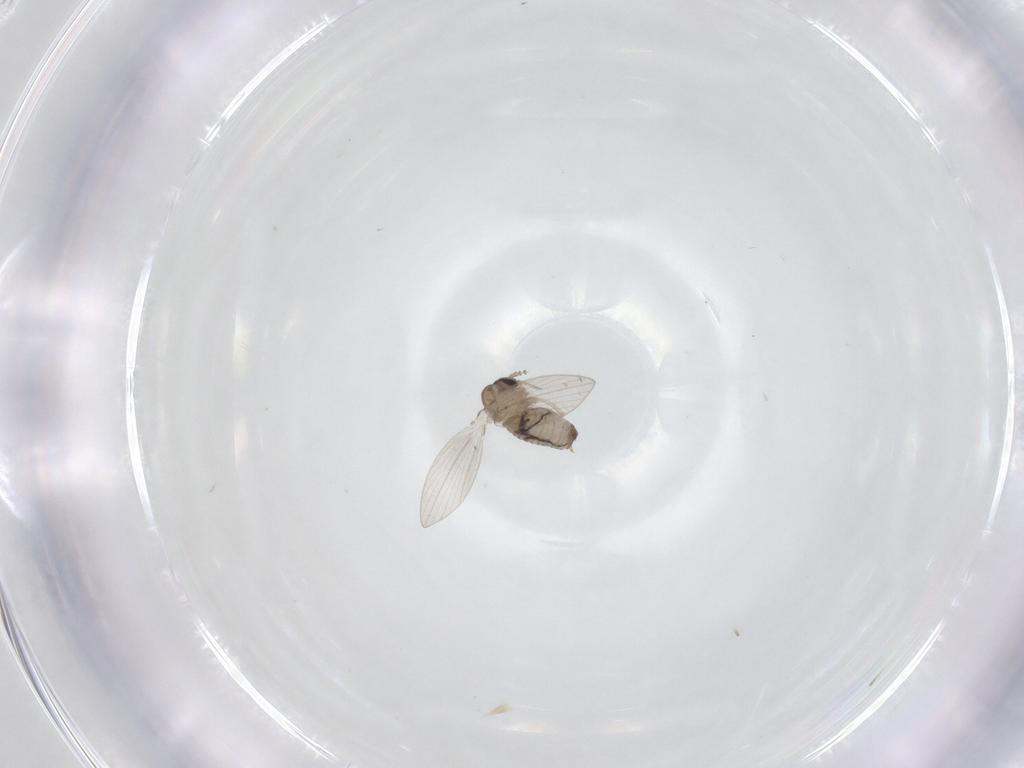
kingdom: Animalia
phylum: Arthropoda
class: Insecta
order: Diptera
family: Psychodidae
